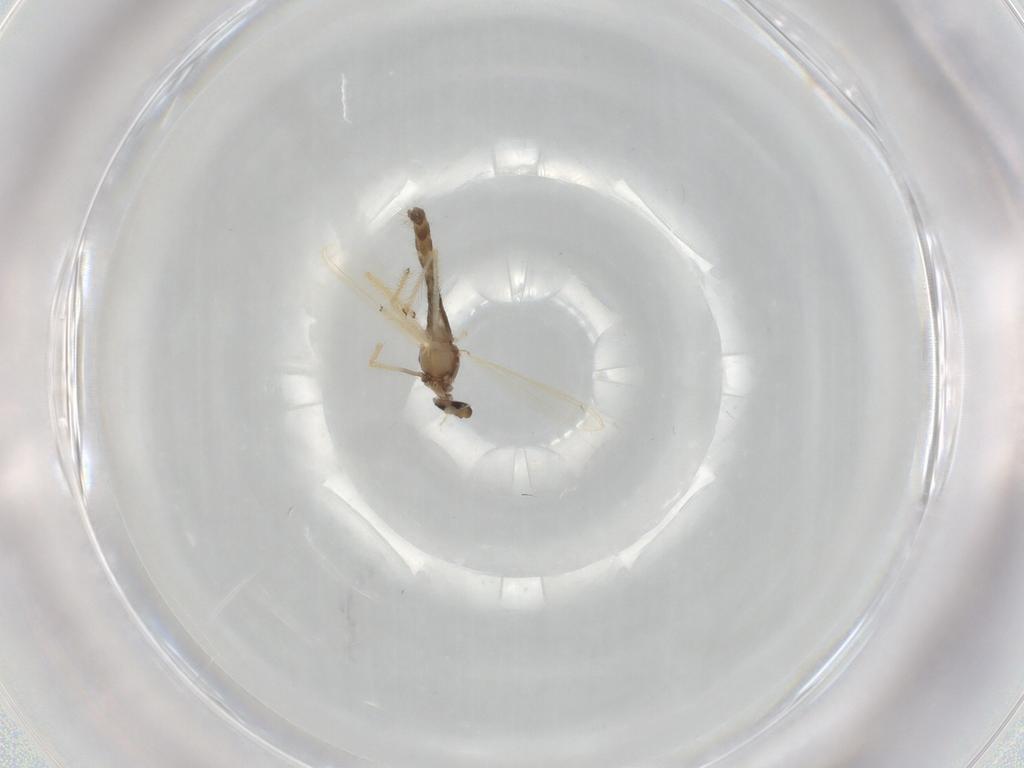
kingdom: Animalia
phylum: Arthropoda
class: Insecta
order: Diptera
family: Chironomidae
